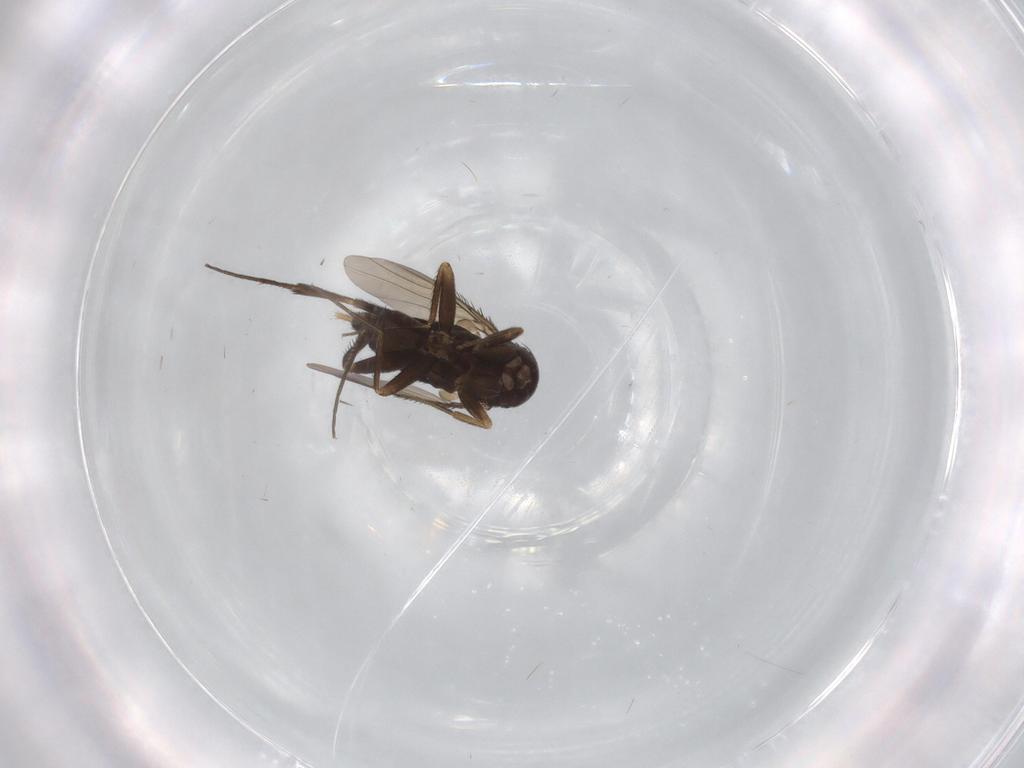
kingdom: Animalia
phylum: Arthropoda
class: Insecta
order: Diptera
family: Phoridae
